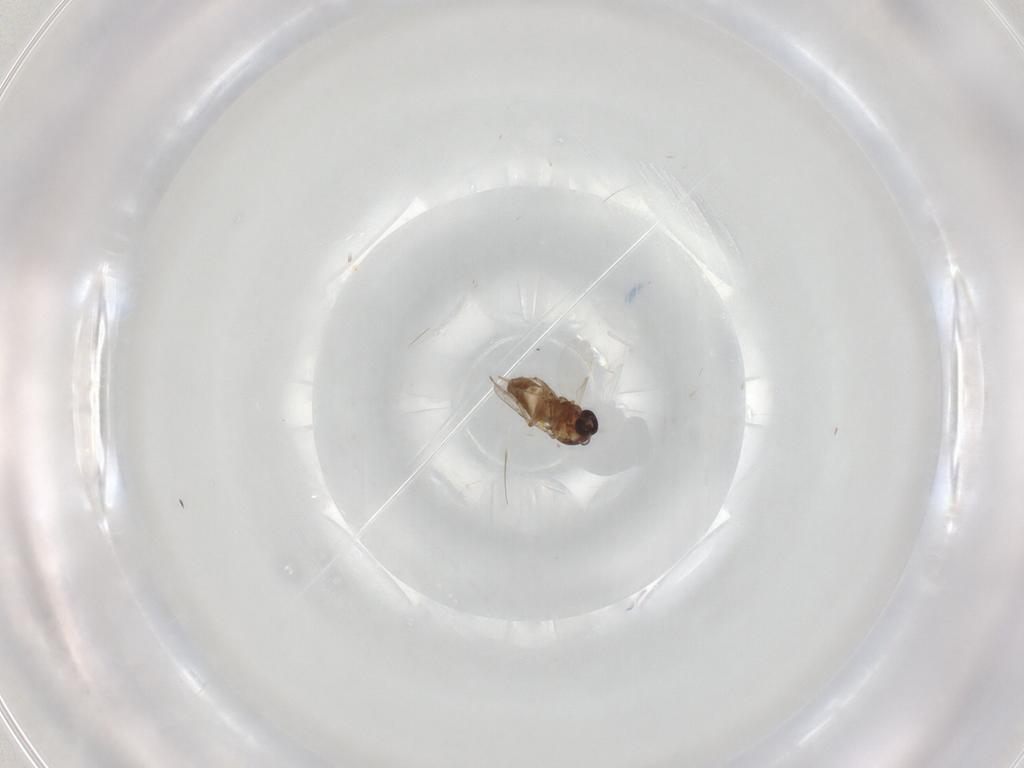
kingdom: Animalia
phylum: Arthropoda
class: Insecta
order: Diptera
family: Ceratopogonidae
